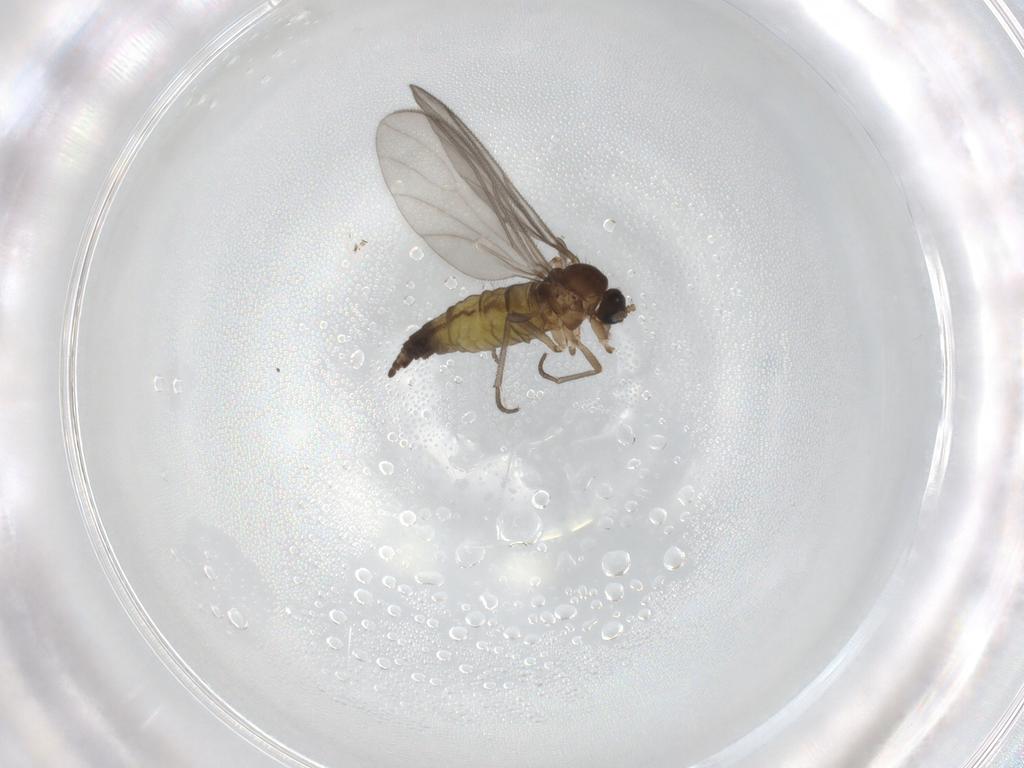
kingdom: Animalia
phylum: Arthropoda
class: Insecta
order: Diptera
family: Sciaridae
